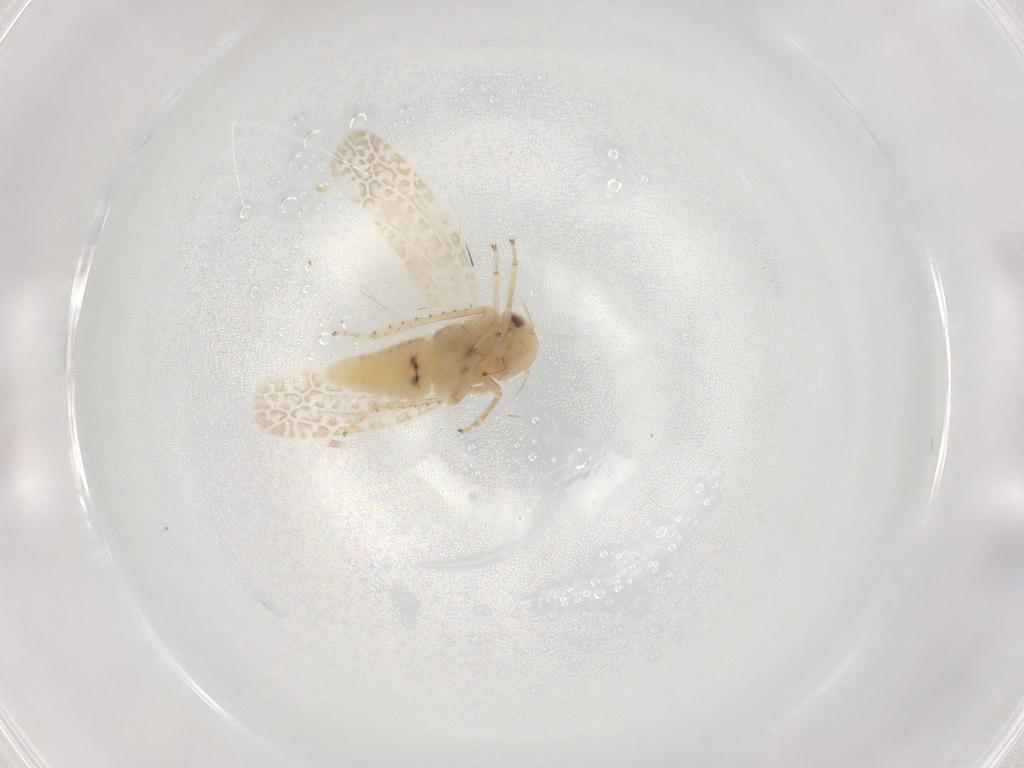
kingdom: Animalia
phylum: Arthropoda
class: Insecta
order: Hemiptera
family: Cicadellidae
